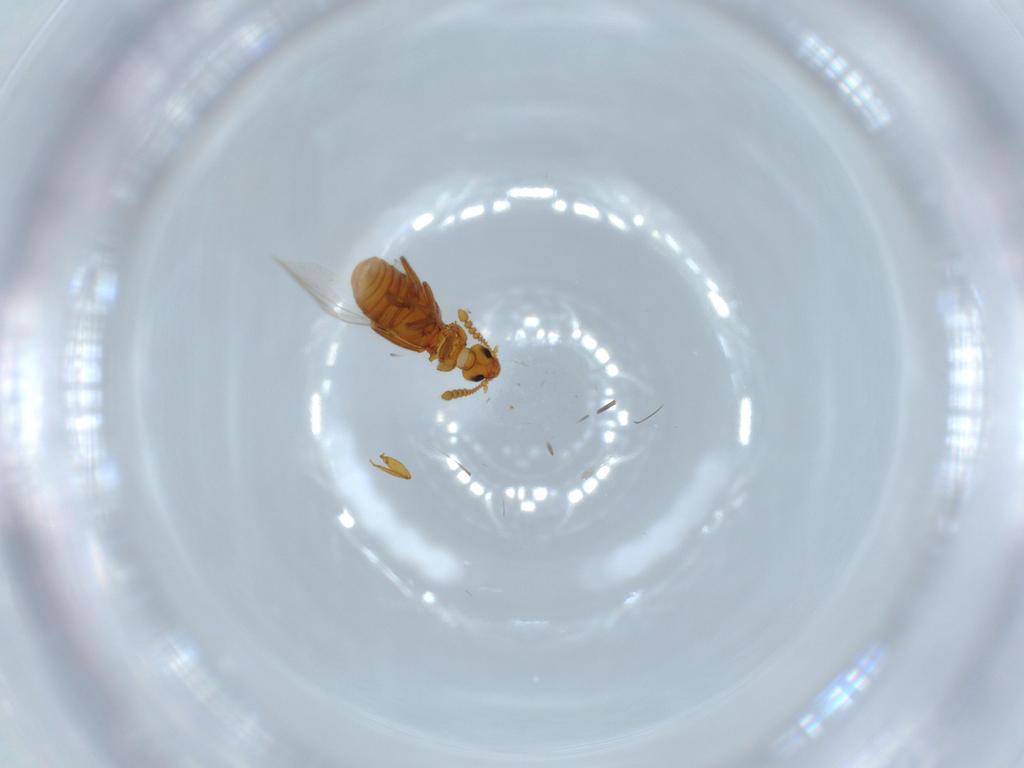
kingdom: Animalia
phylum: Arthropoda
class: Insecta
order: Coleoptera
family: Staphylinidae
